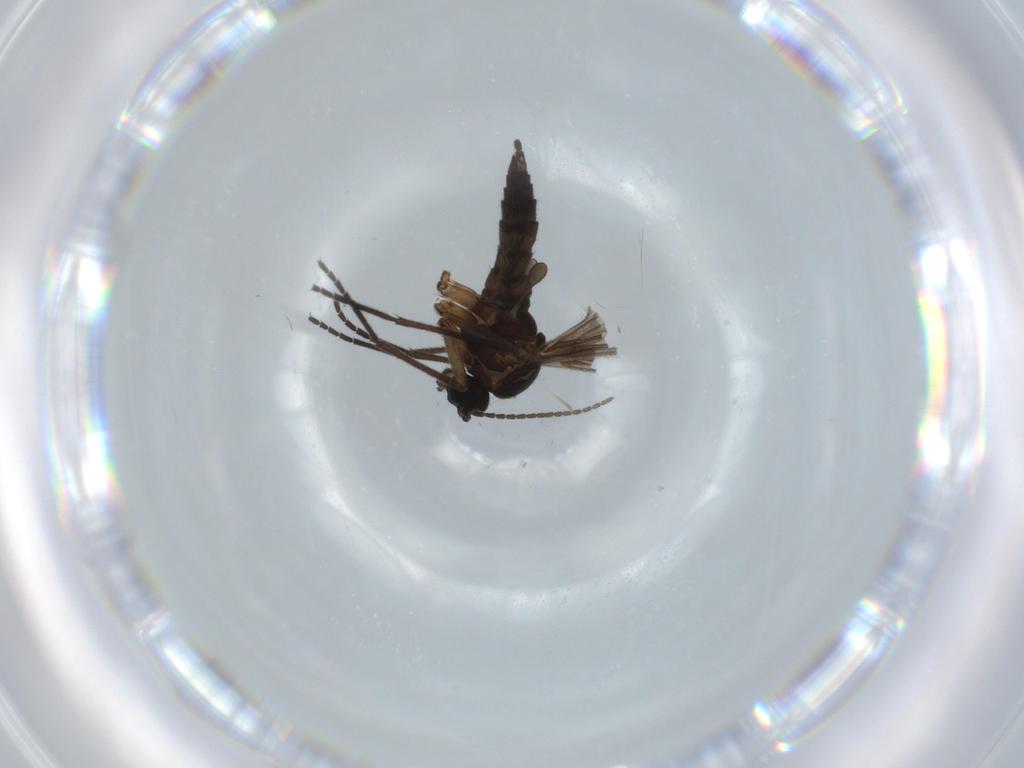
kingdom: Animalia
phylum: Arthropoda
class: Insecta
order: Diptera
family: Sciaridae
